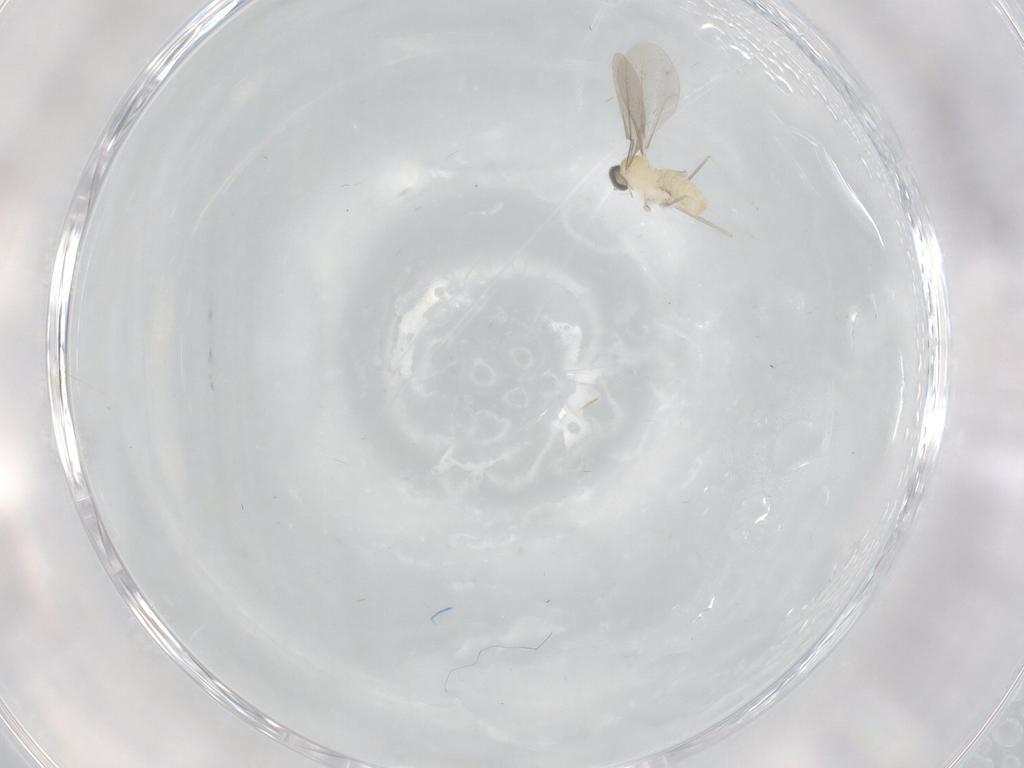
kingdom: Animalia
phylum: Arthropoda
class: Insecta
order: Diptera
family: Cecidomyiidae
